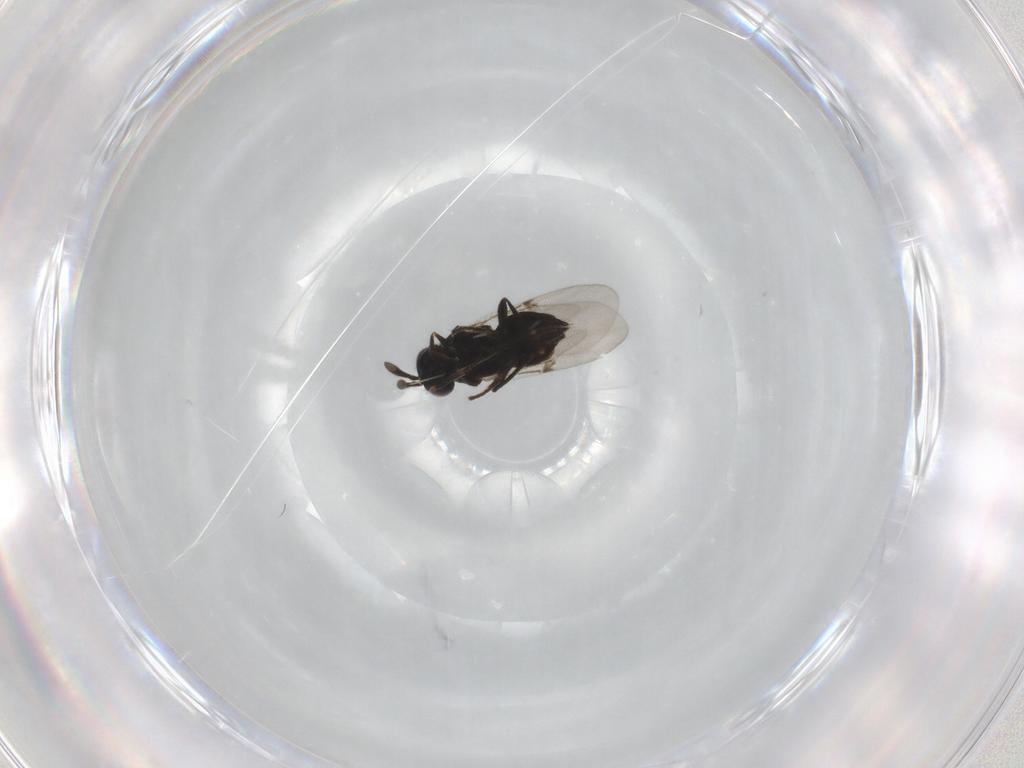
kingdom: Animalia
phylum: Arthropoda
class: Insecta
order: Hymenoptera
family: Encyrtidae
